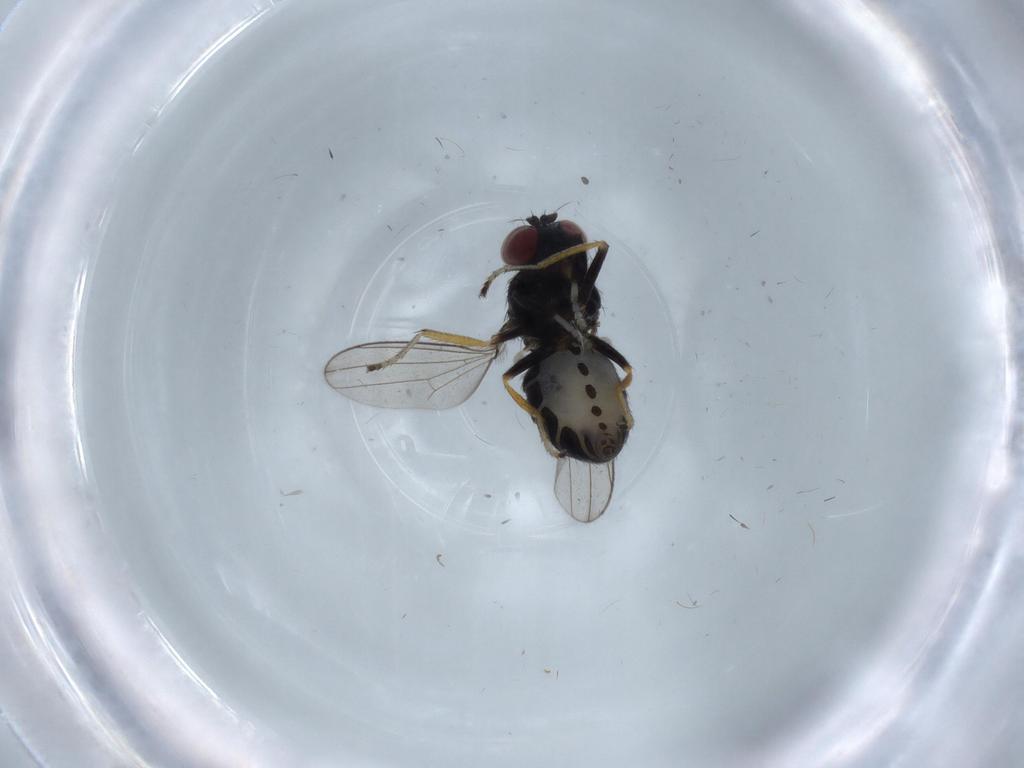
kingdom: Animalia
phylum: Arthropoda
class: Insecta
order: Diptera
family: Ephydridae
